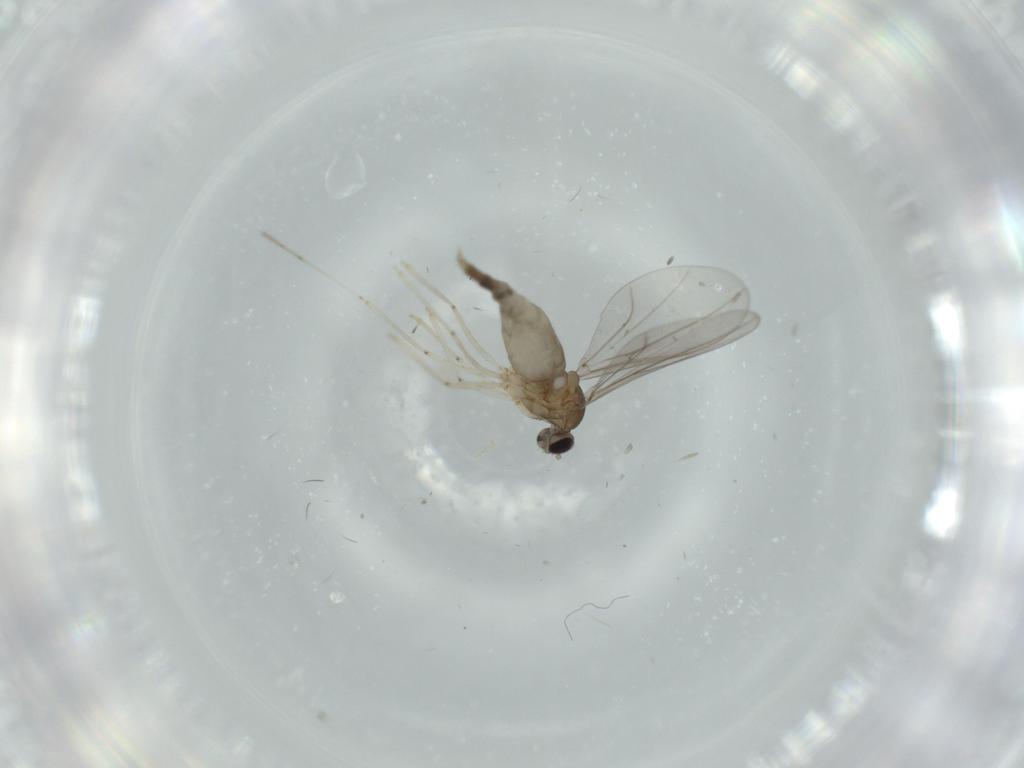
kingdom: Animalia
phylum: Arthropoda
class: Insecta
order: Diptera
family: Cecidomyiidae
